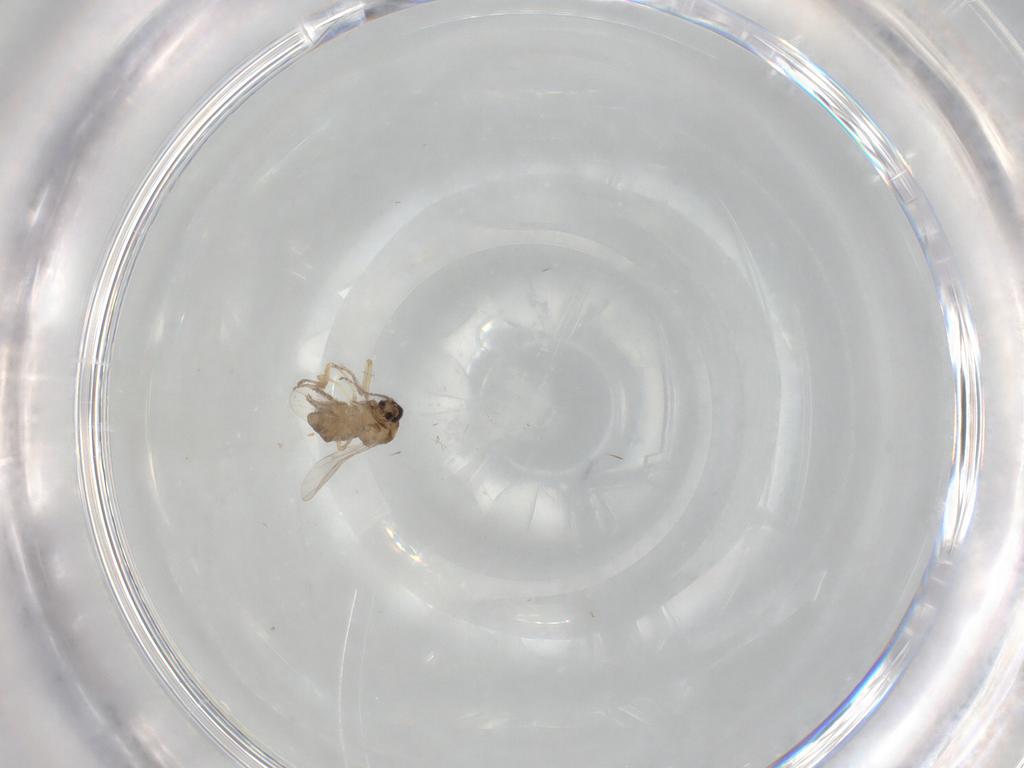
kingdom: Animalia
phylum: Arthropoda
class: Insecta
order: Diptera
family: Ceratopogonidae
